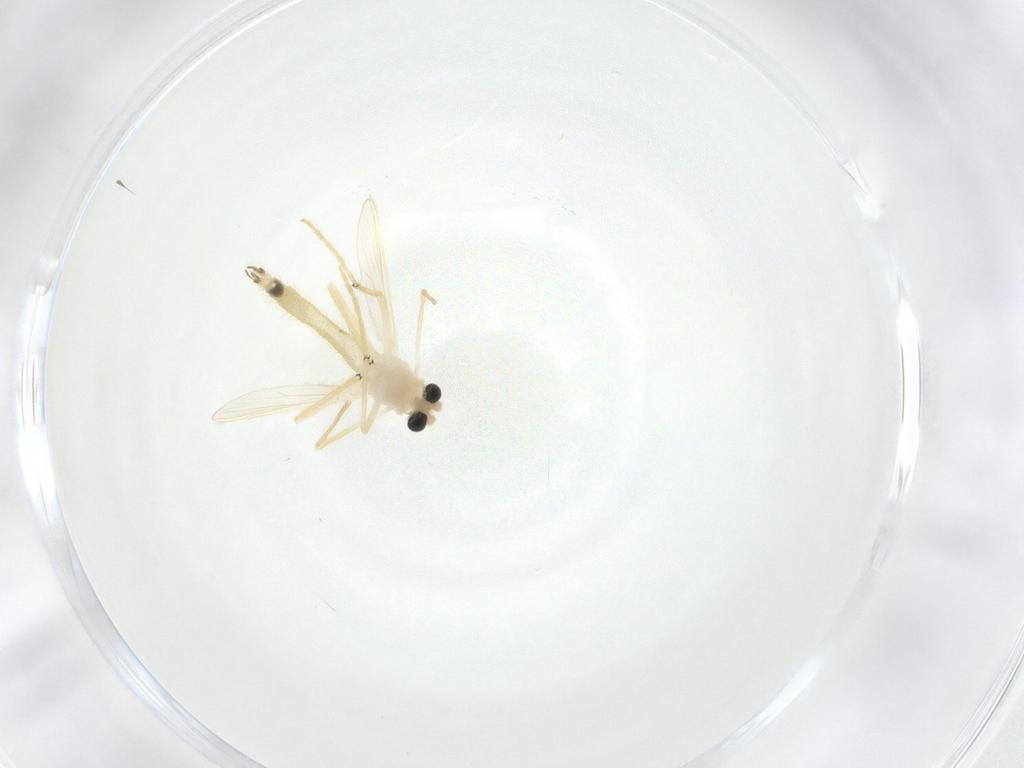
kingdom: Animalia
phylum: Arthropoda
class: Insecta
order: Diptera
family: Chironomidae
